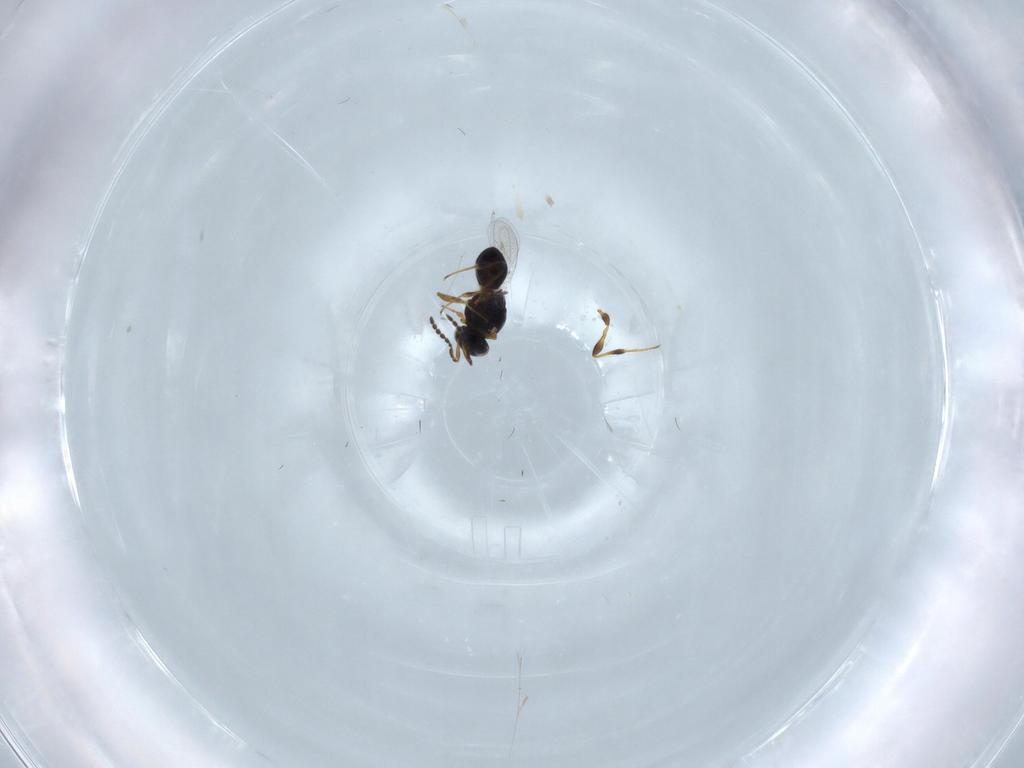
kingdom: Animalia
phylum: Arthropoda
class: Insecta
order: Hymenoptera
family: Platygastridae
